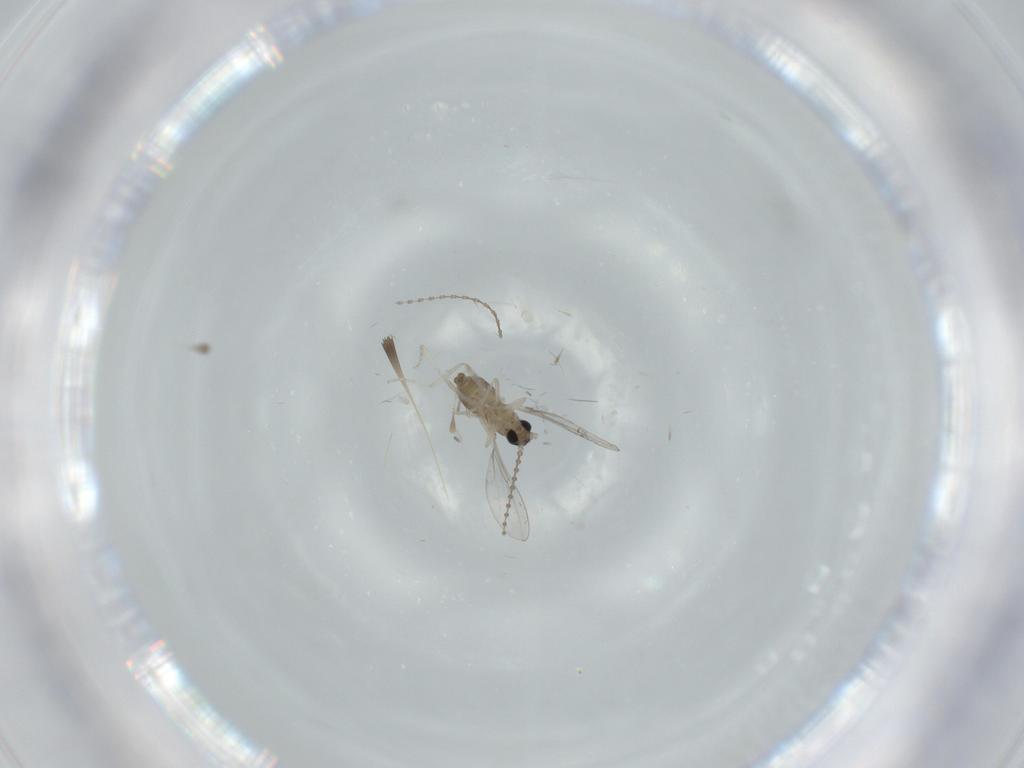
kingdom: Animalia
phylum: Arthropoda
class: Insecta
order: Diptera
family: Cecidomyiidae
